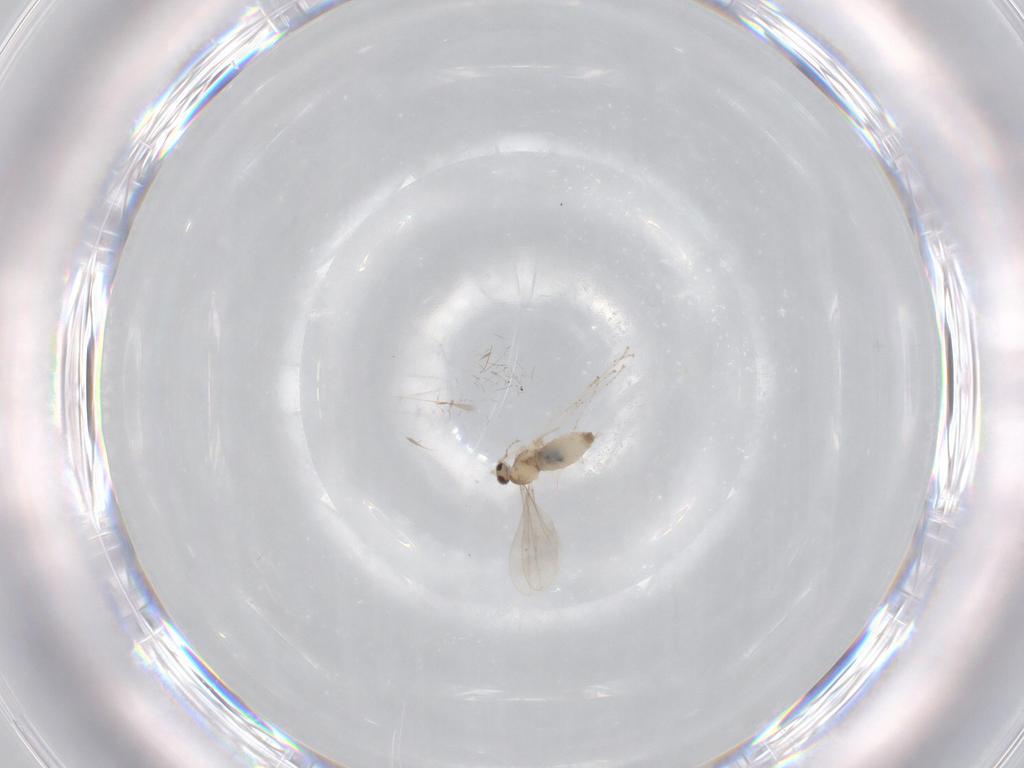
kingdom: Animalia
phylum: Arthropoda
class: Insecta
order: Diptera
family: Cecidomyiidae
